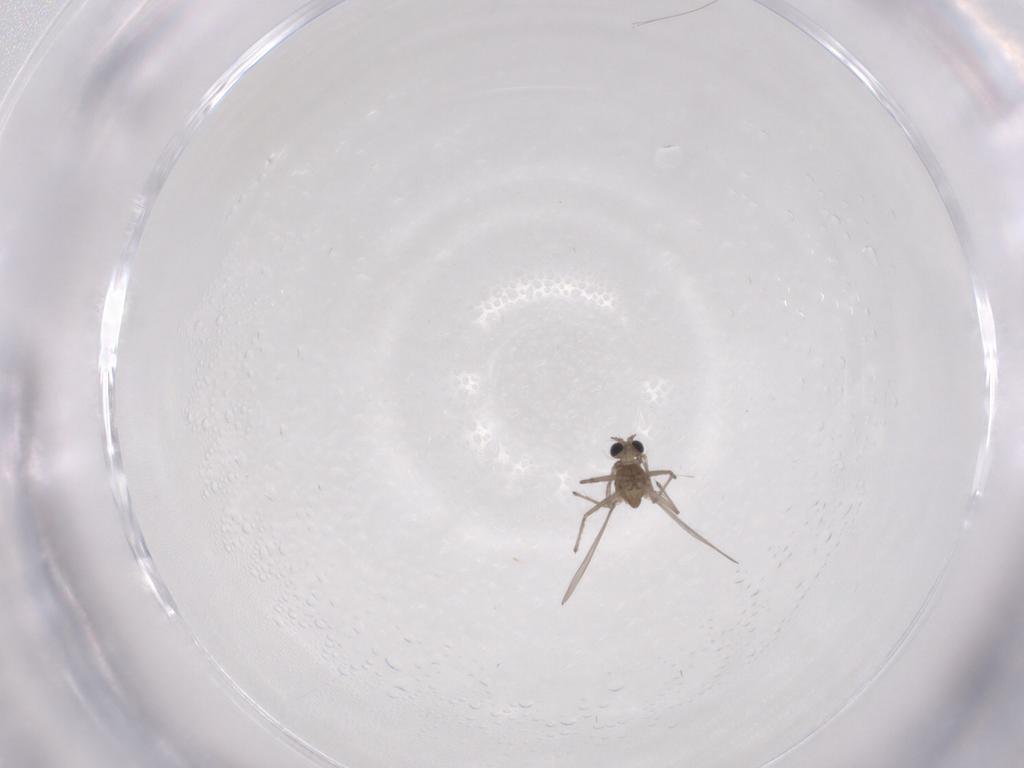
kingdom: Animalia
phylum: Arthropoda
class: Insecta
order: Diptera
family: Chironomidae
